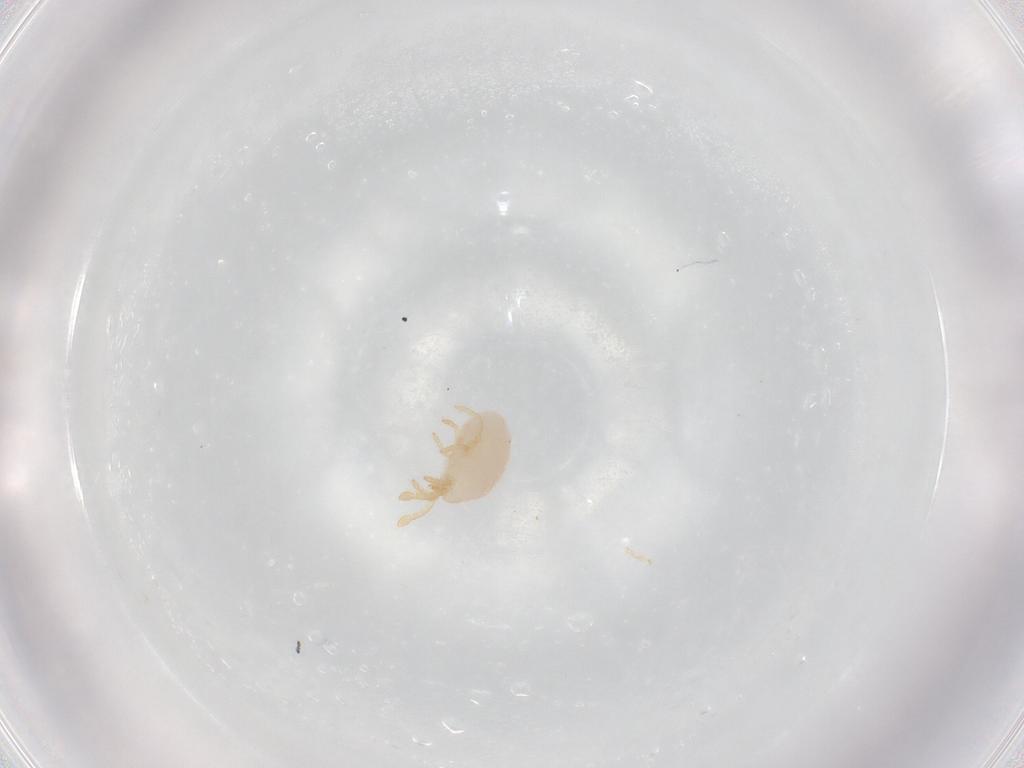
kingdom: Animalia
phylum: Arthropoda
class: Arachnida
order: Trombidiformes
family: Microtrombidiidae
